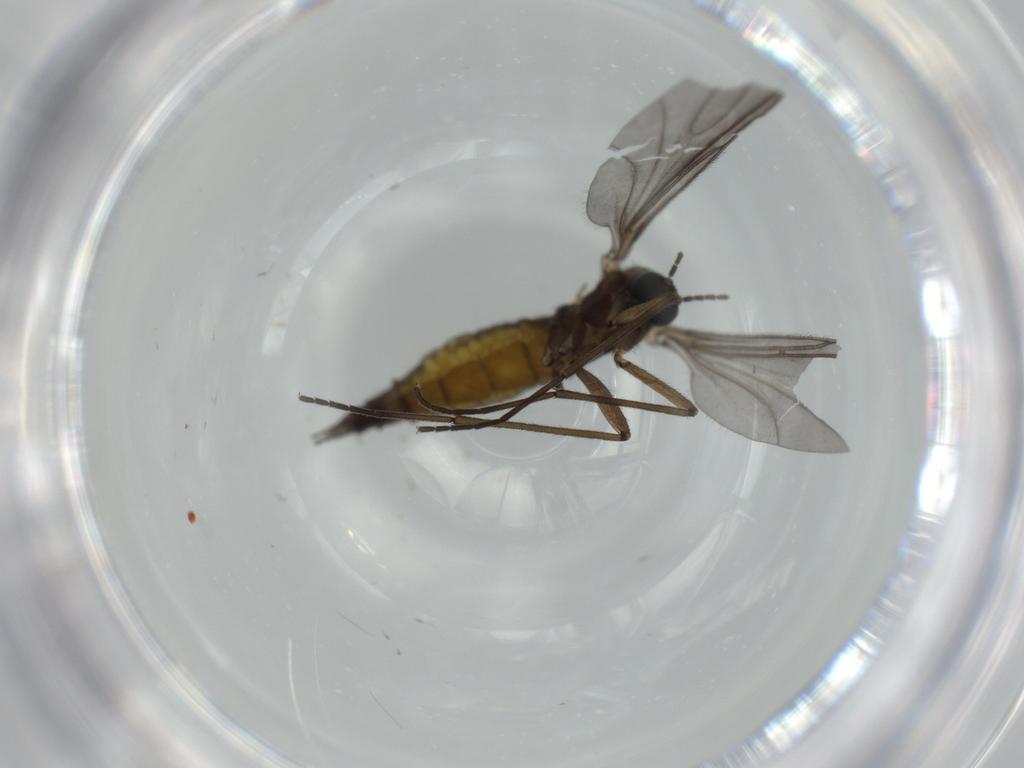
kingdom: Animalia
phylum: Arthropoda
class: Insecta
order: Diptera
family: Sciaridae
